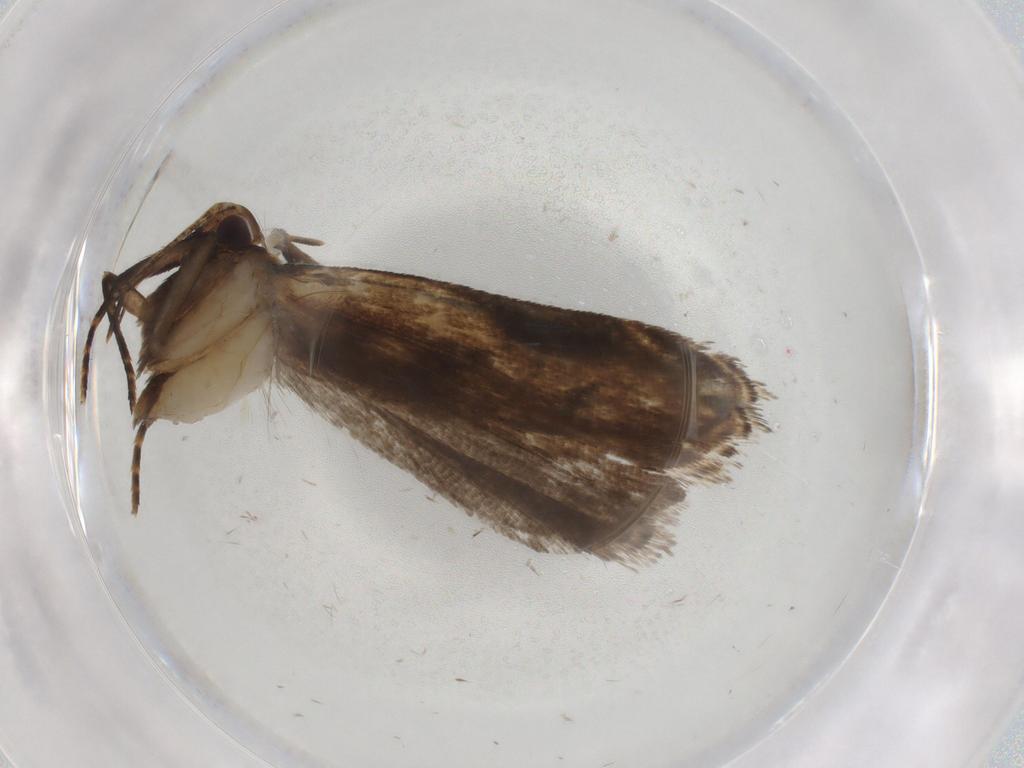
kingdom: Animalia
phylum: Arthropoda
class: Insecta
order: Lepidoptera
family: Gelechiidae
